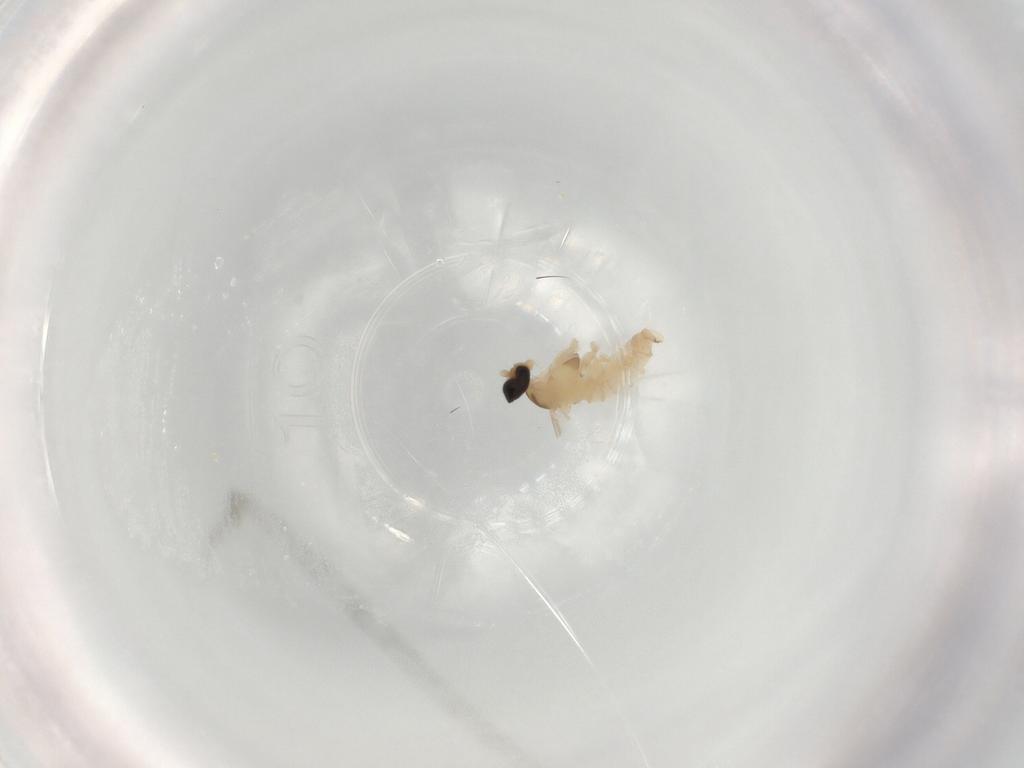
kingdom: Animalia
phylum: Arthropoda
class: Insecta
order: Diptera
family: Cecidomyiidae
